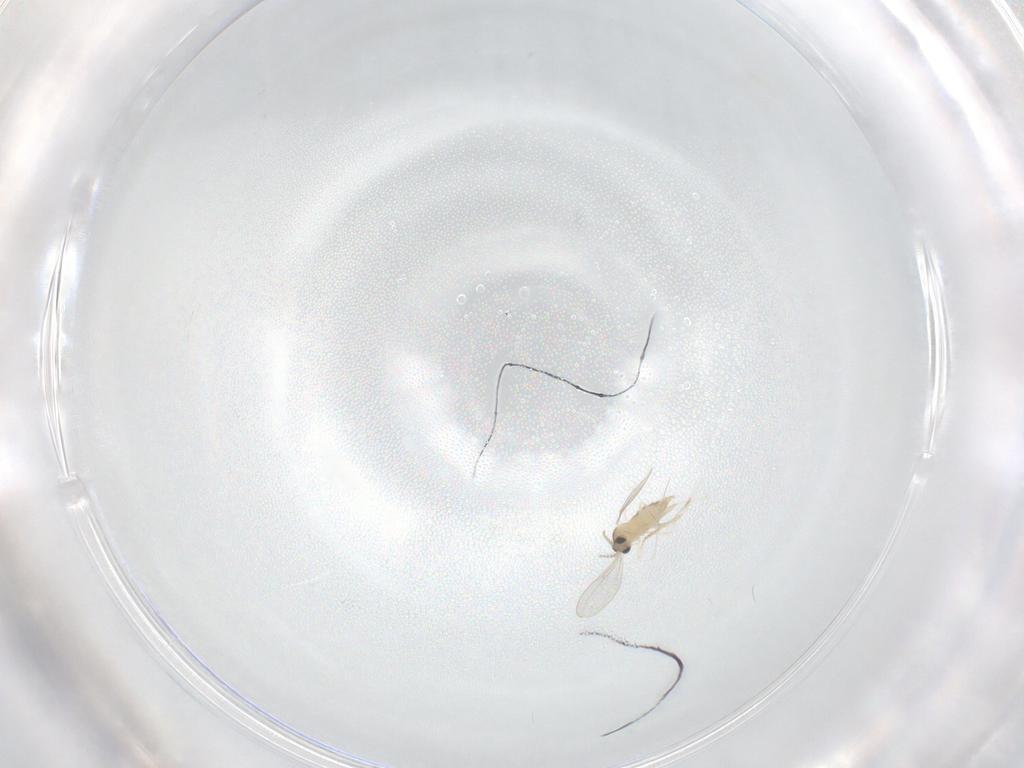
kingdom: Animalia
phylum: Arthropoda
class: Insecta
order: Diptera
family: Cecidomyiidae
